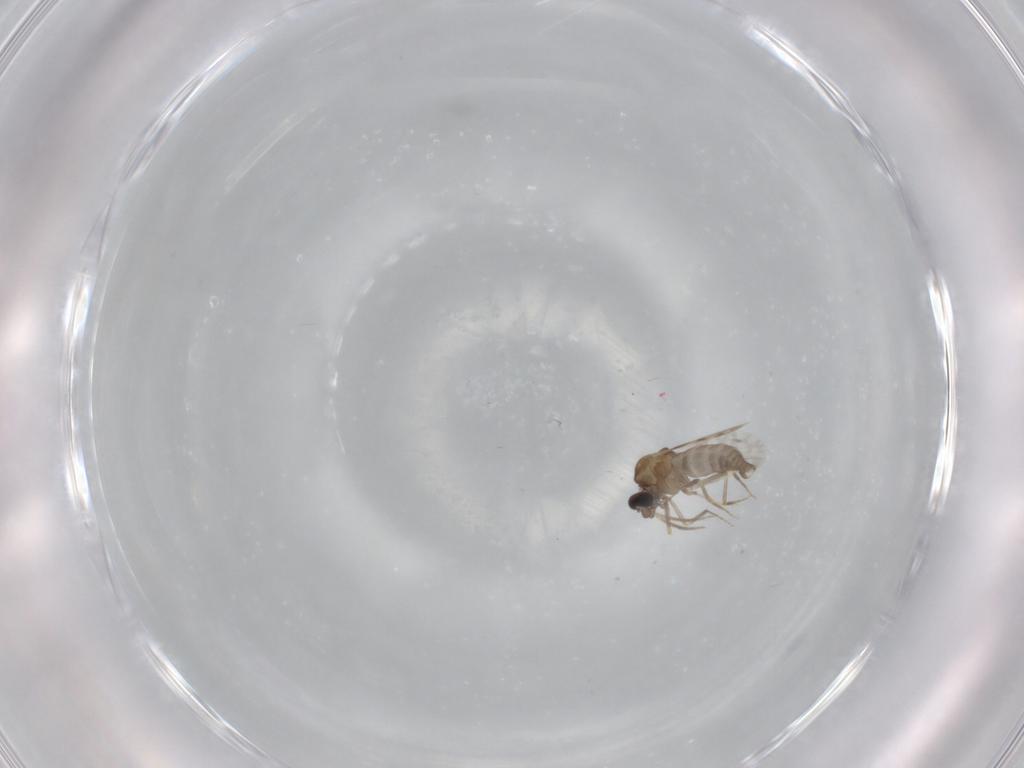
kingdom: Animalia
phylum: Arthropoda
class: Insecta
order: Diptera
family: Ceratopogonidae
